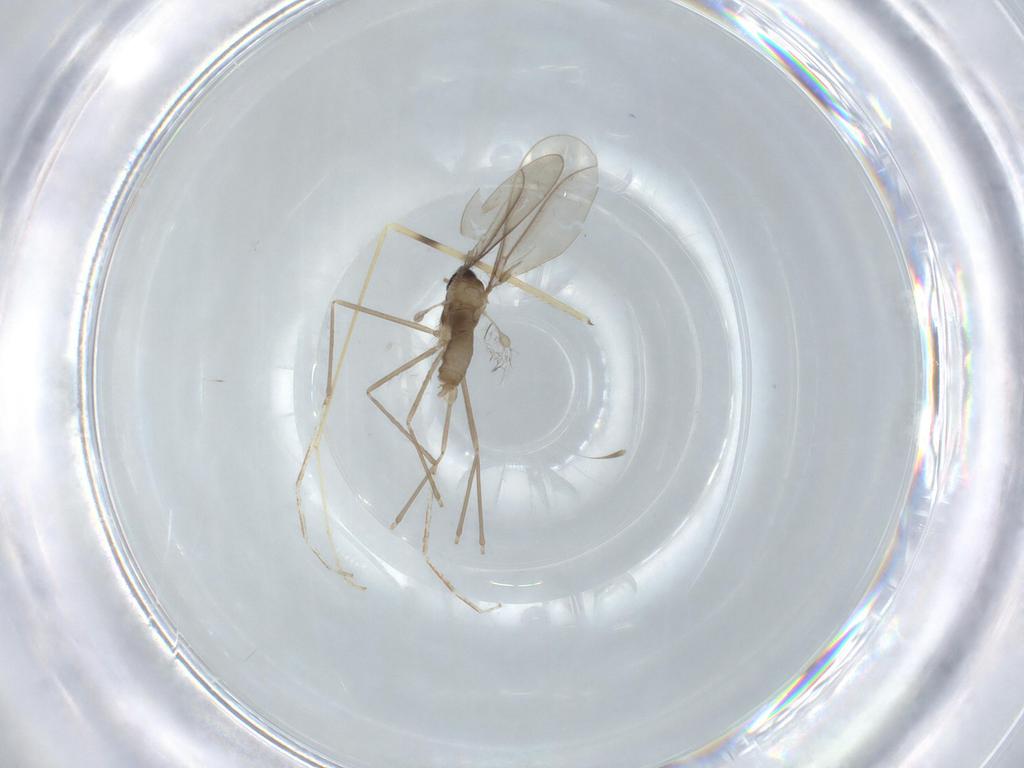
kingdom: Animalia
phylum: Arthropoda
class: Insecta
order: Diptera
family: Cecidomyiidae
